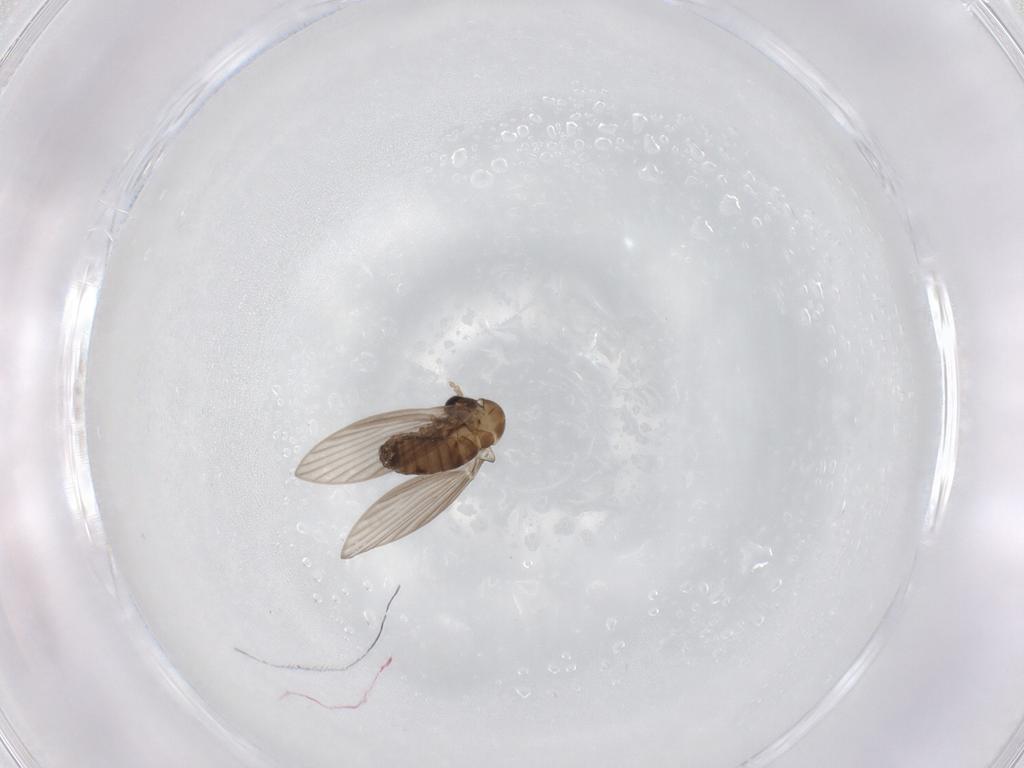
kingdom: Animalia
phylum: Arthropoda
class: Insecta
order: Diptera
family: Psychodidae
